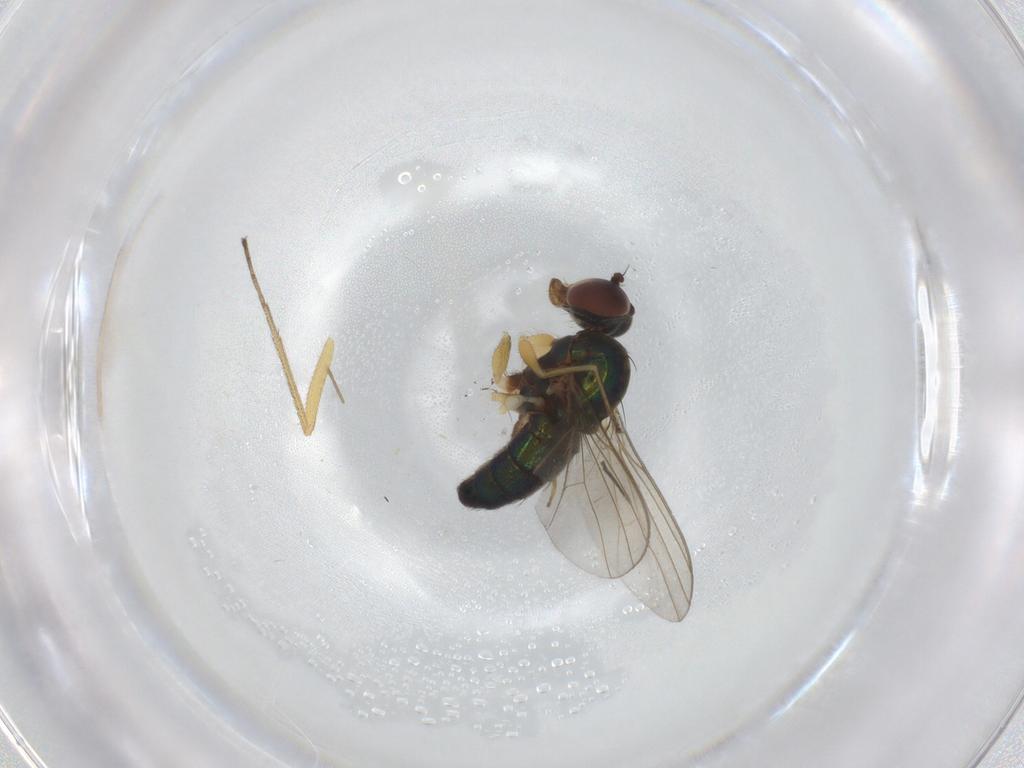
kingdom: Animalia
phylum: Arthropoda
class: Insecta
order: Diptera
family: Dolichopodidae
